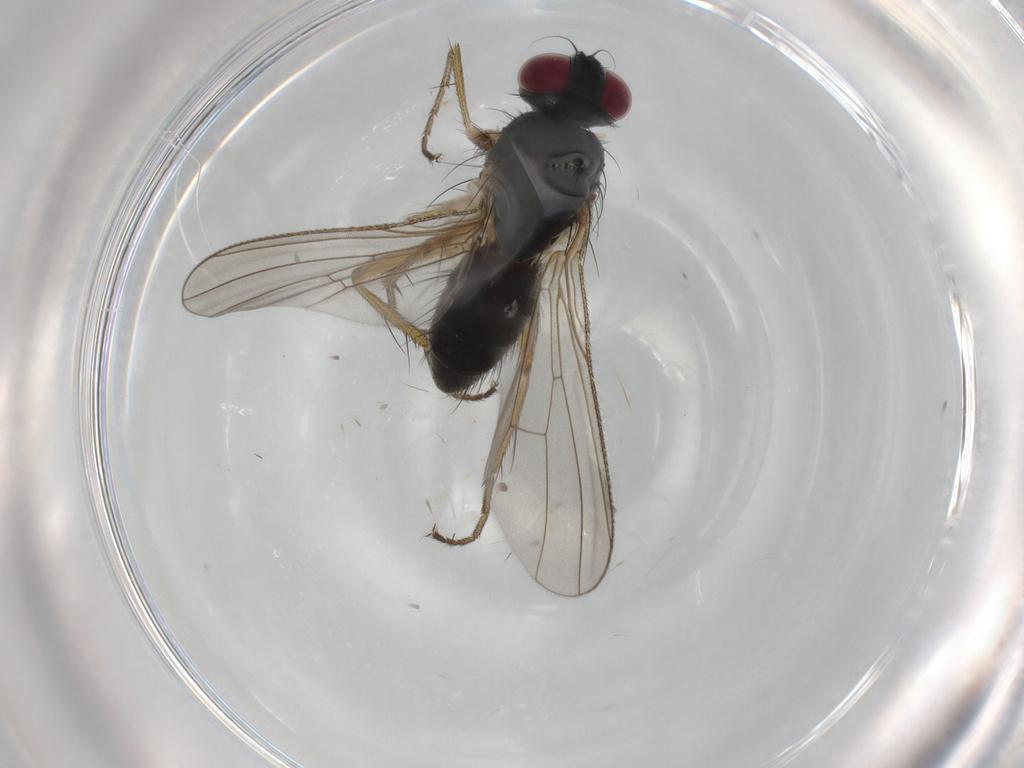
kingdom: Animalia
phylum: Arthropoda
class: Insecta
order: Diptera
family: Muscidae
